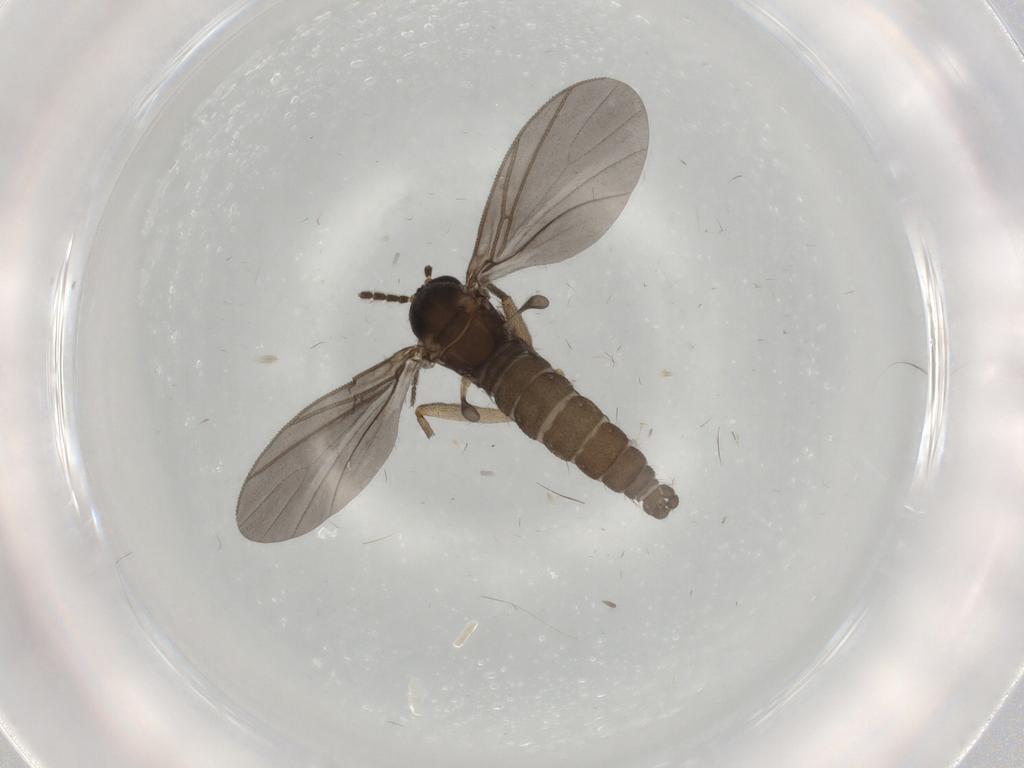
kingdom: Animalia
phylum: Arthropoda
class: Insecta
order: Diptera
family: Sciaridae
